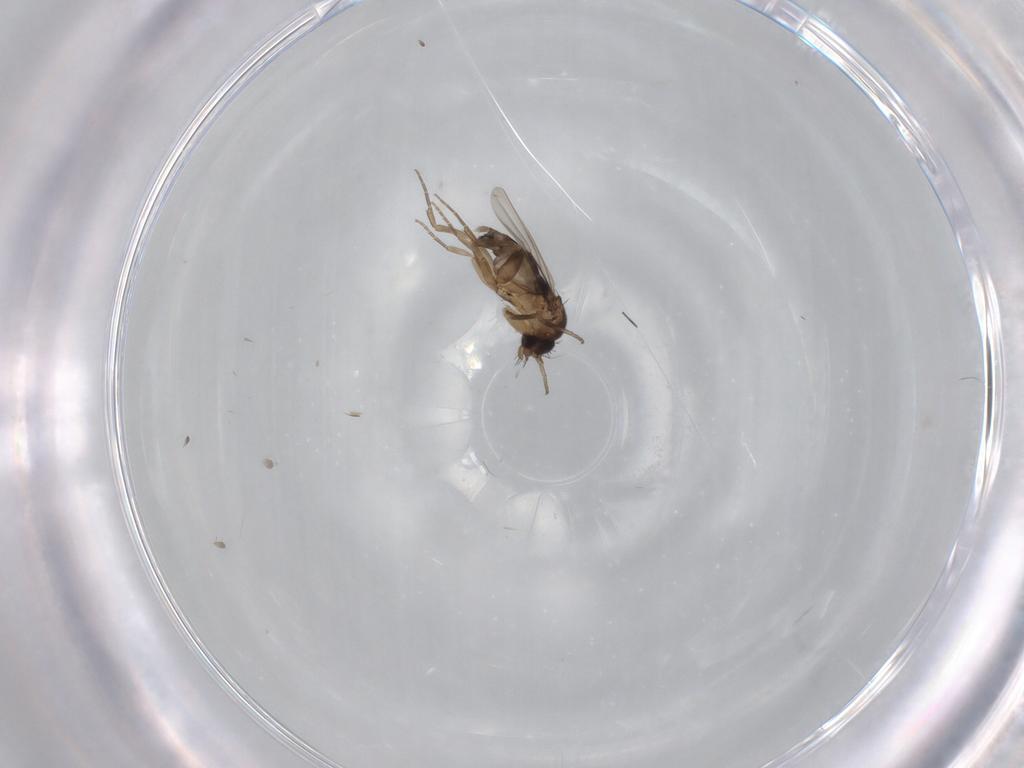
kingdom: Animalia
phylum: Arthropoda
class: Insecta
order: Diptera
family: Phoridae
